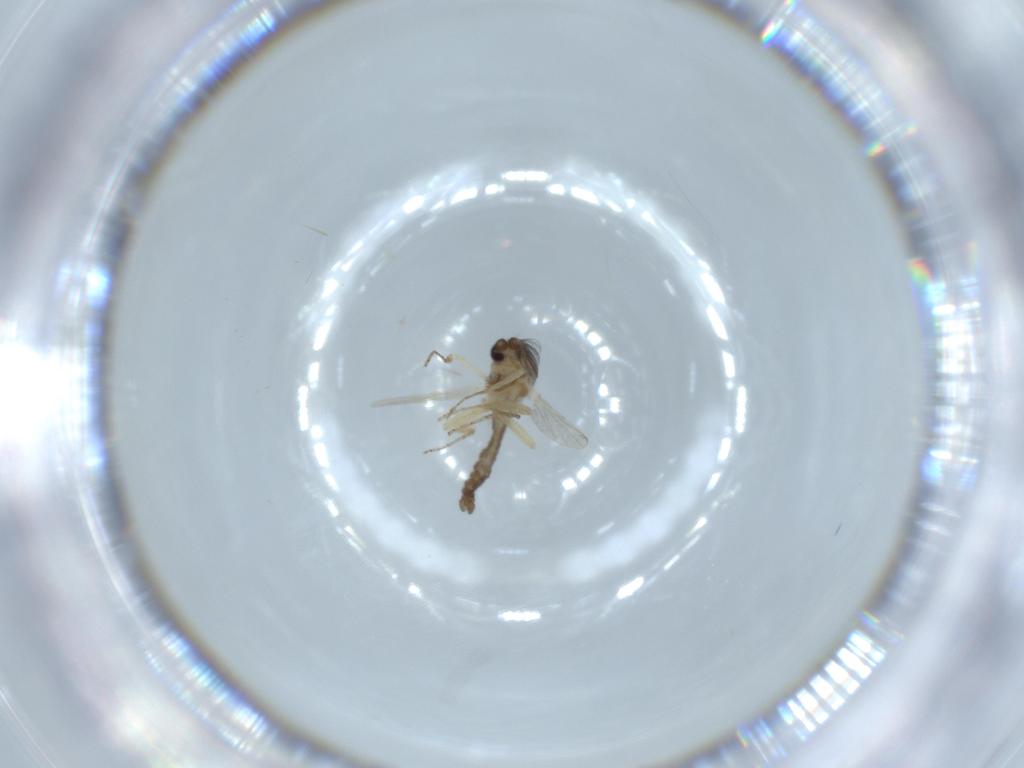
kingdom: Animalia
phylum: Arthropoda
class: Insecta
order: Diptera
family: Ceratopogonidae
